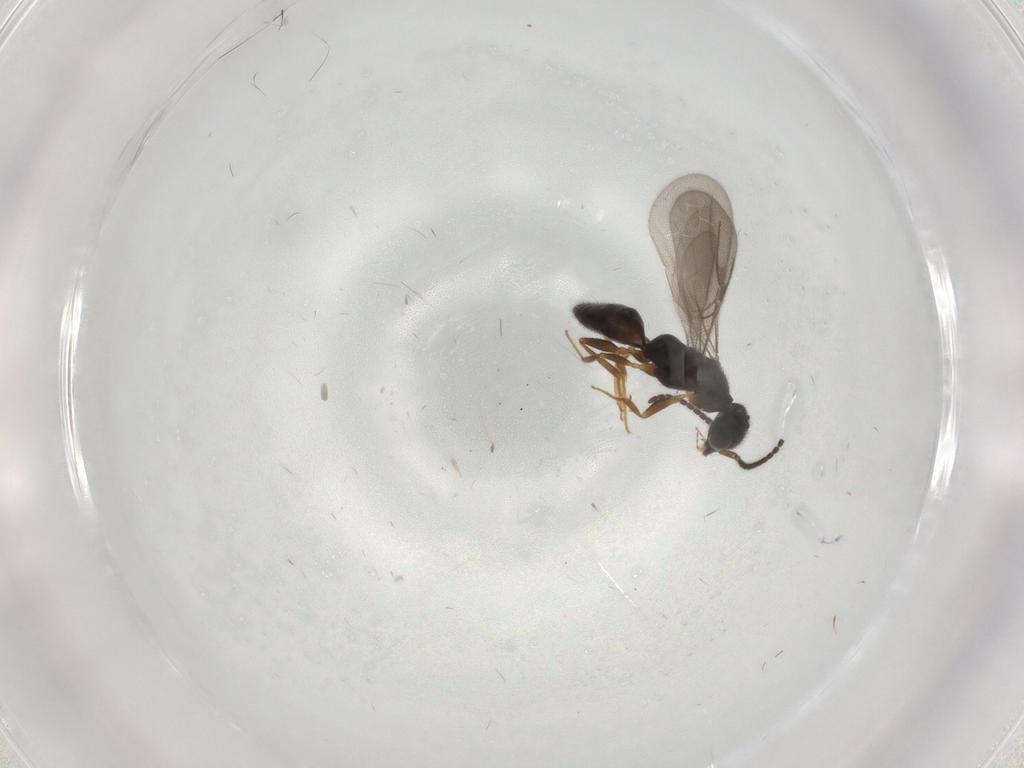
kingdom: Animalia
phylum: Arthropoda
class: Insecta
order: Hymenoptera
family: Bethylidae
